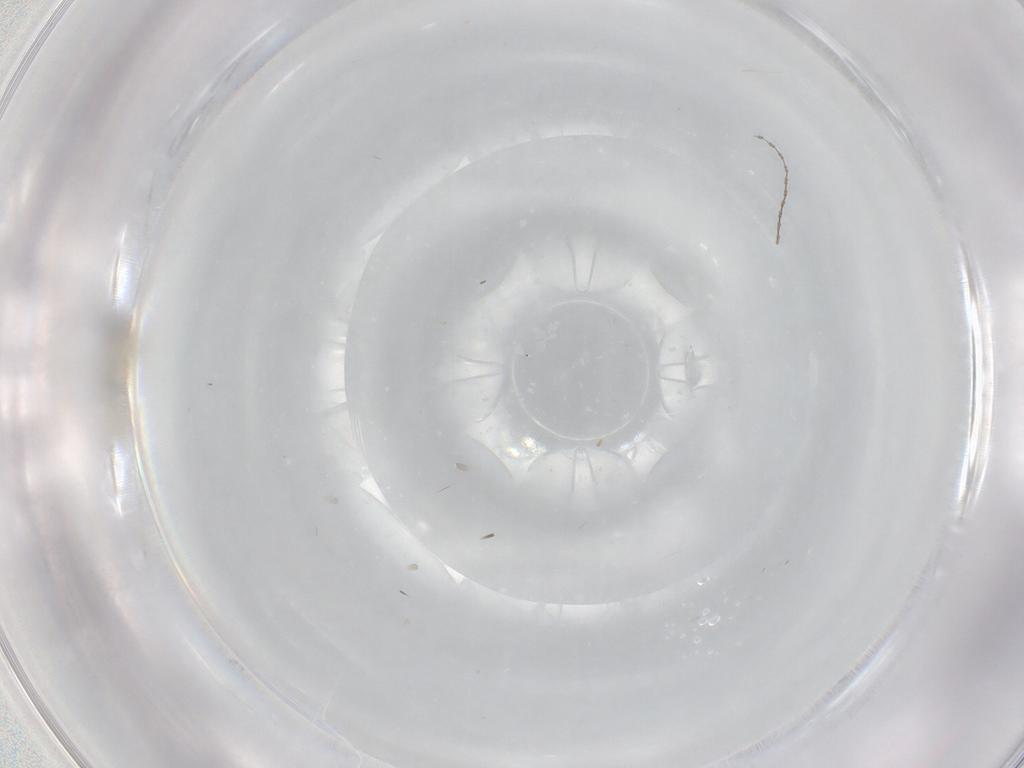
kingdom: Animalia
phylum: Arthropoda
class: Insecta
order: Diptera
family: Cecidomyiidae
